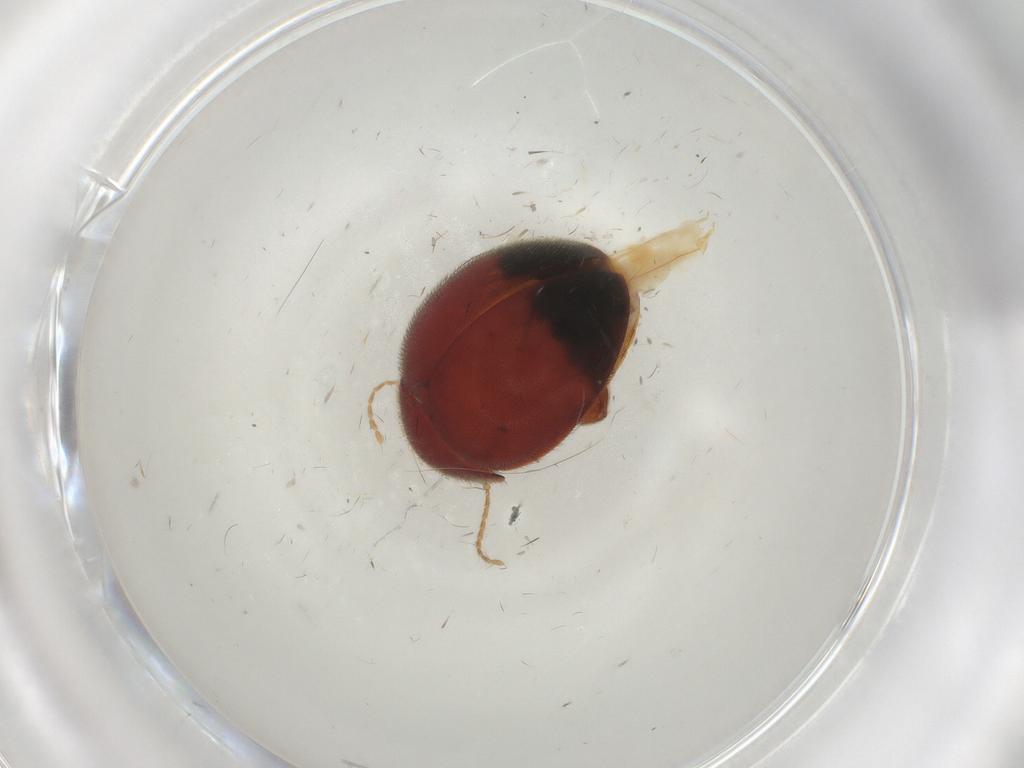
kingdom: Animalia
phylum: Arthropoda
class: Insecta
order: Coleoptera
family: Scirtidae
